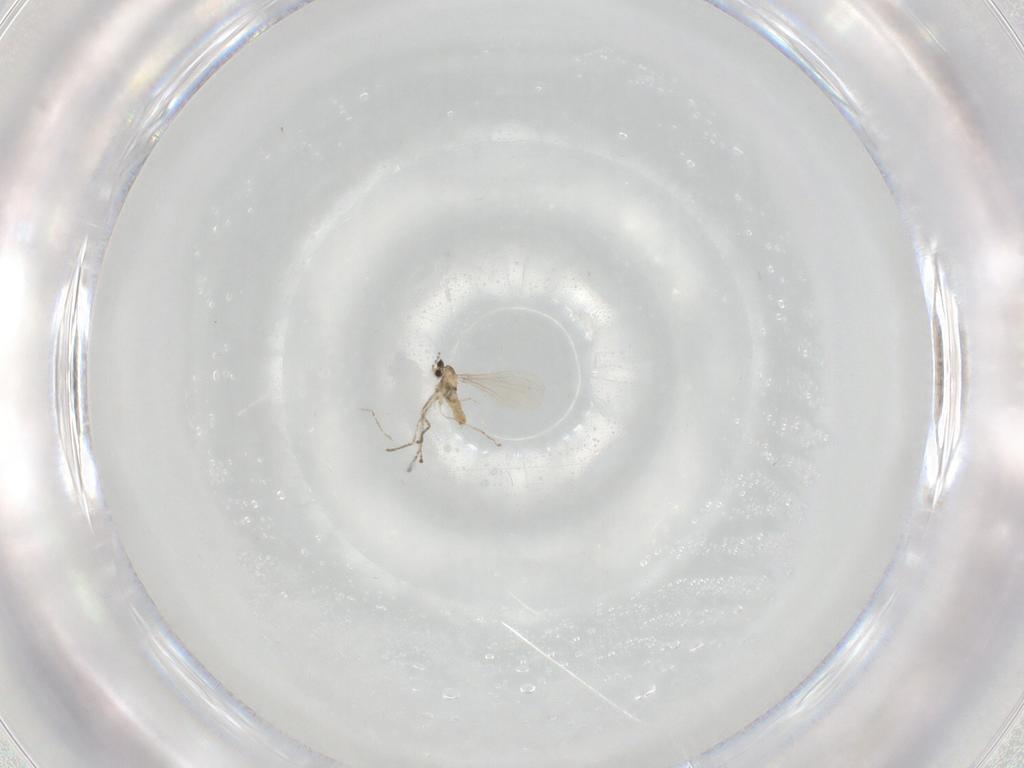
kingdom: Animalia
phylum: Arthropoda
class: Insecta
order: Diptera
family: Cecidomyiidae
